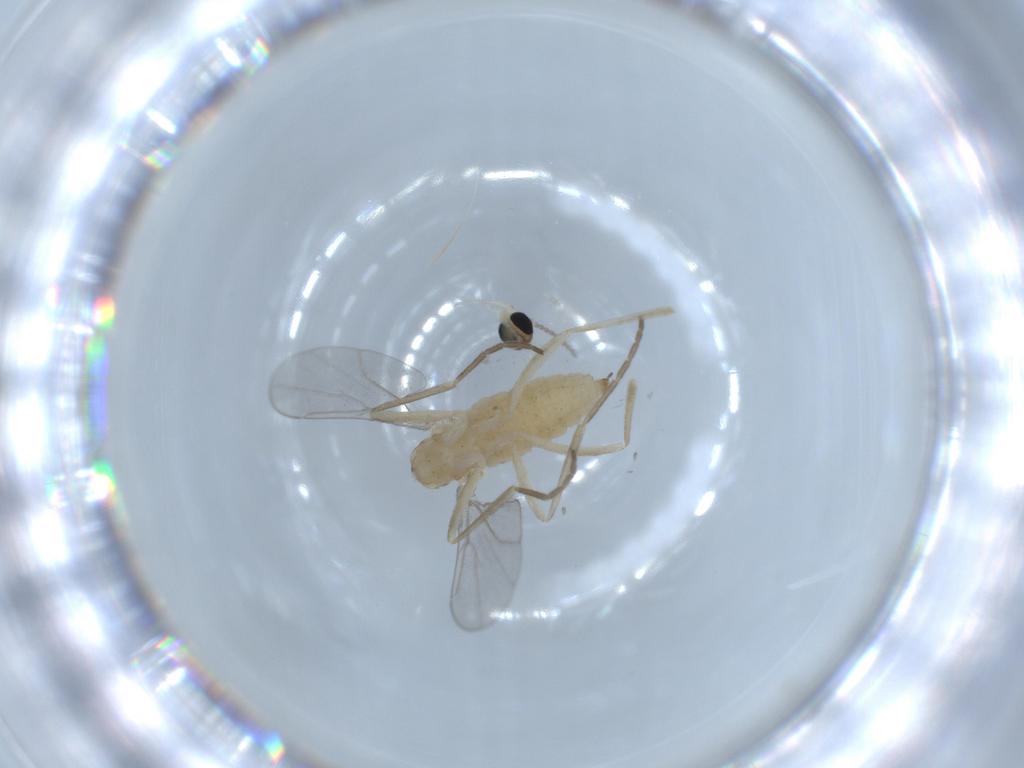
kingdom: Animalia
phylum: Arthropoda
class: Insecta
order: Diptera
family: Cecidomyiidae
